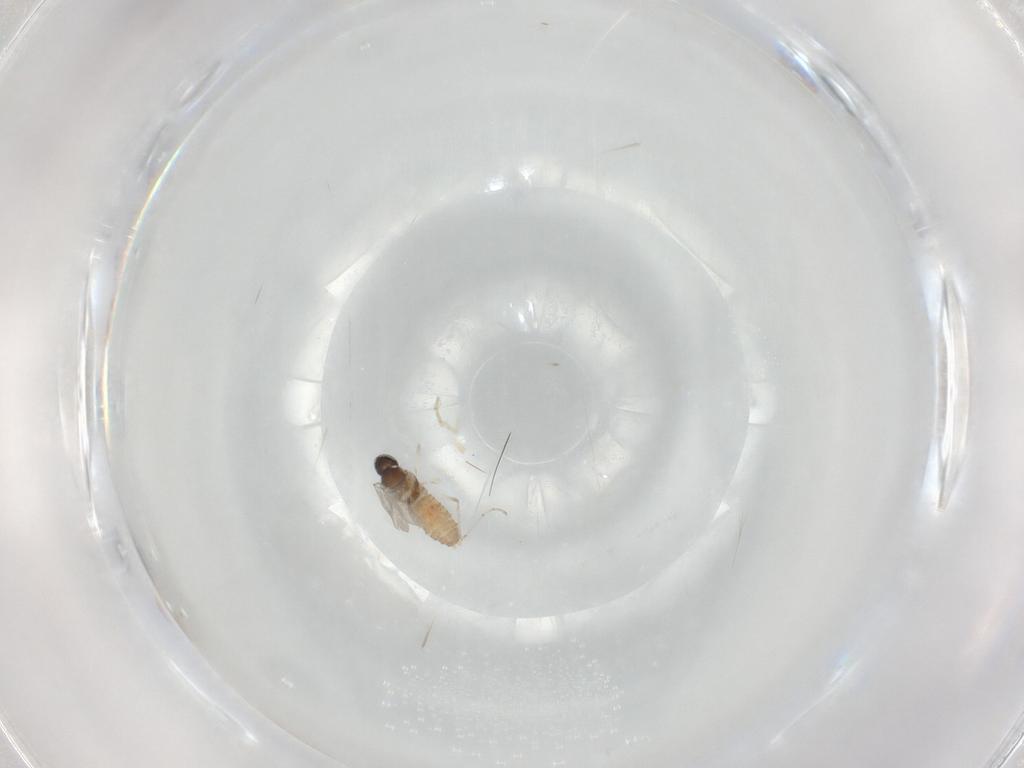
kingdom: Animalia
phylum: Arthropoda
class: Insecta
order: Diptera
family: Cecidomyiidae
